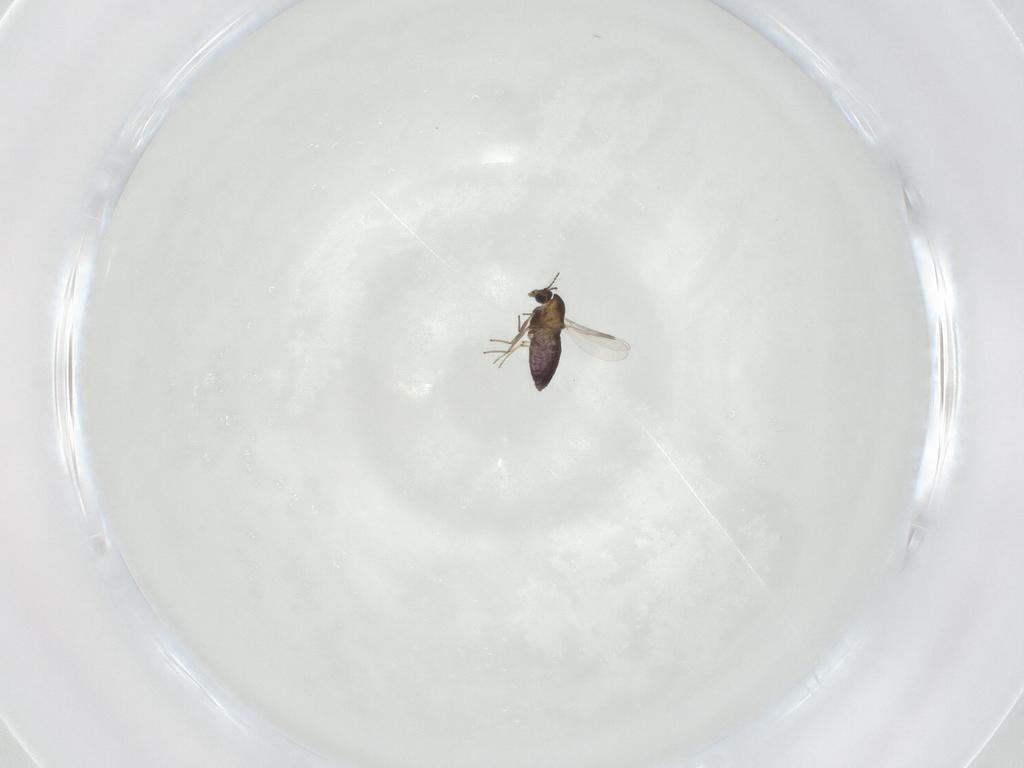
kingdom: Animalia
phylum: Arthropoda
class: Insecta
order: Diptera
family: Chironomidae
